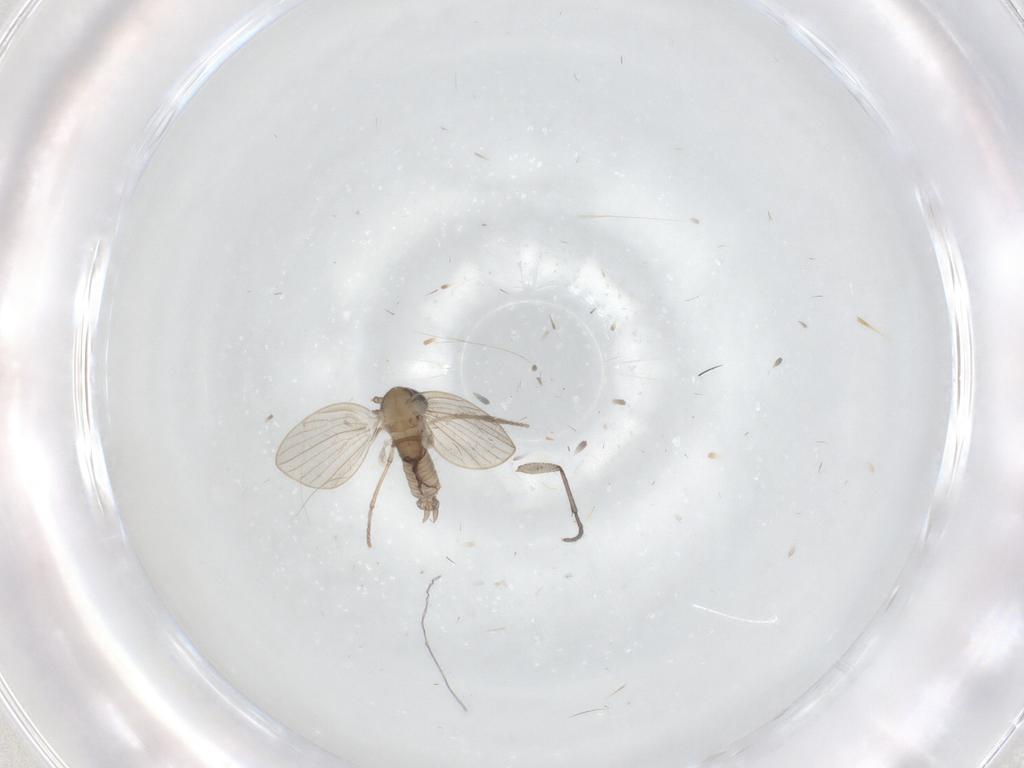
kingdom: Animalia
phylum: Arthropoda
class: Insecta
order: Diptera
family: Psychodidae
